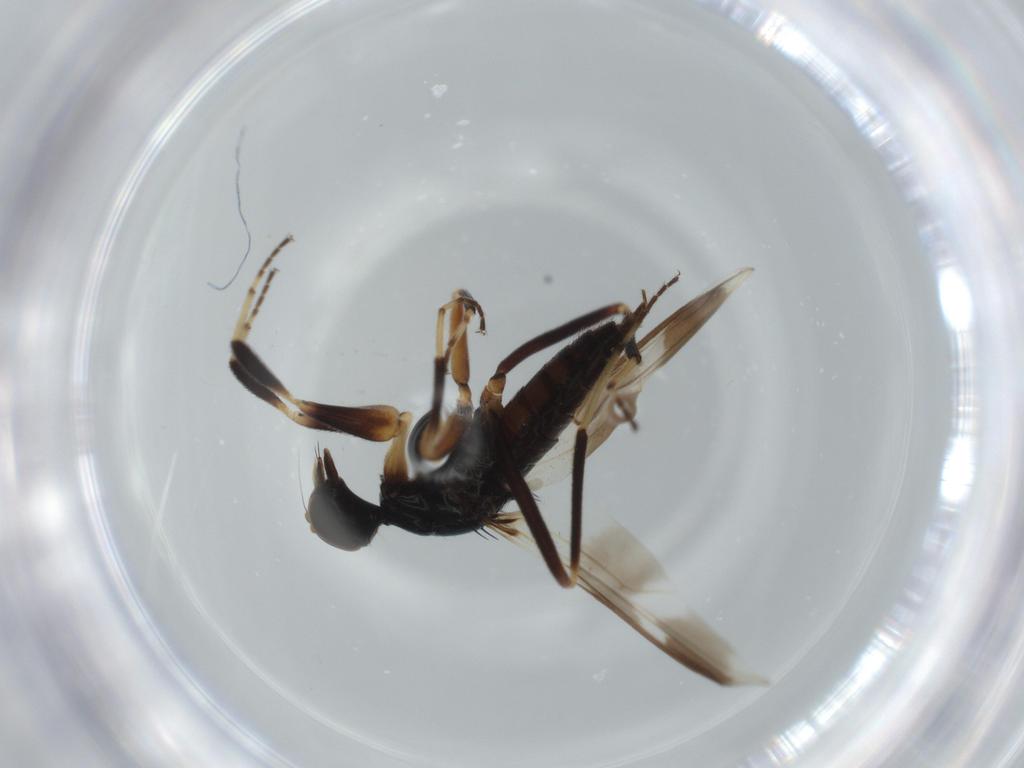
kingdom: Animalia
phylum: Arthropoda
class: Insecta
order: Diptera
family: Hybotidae
